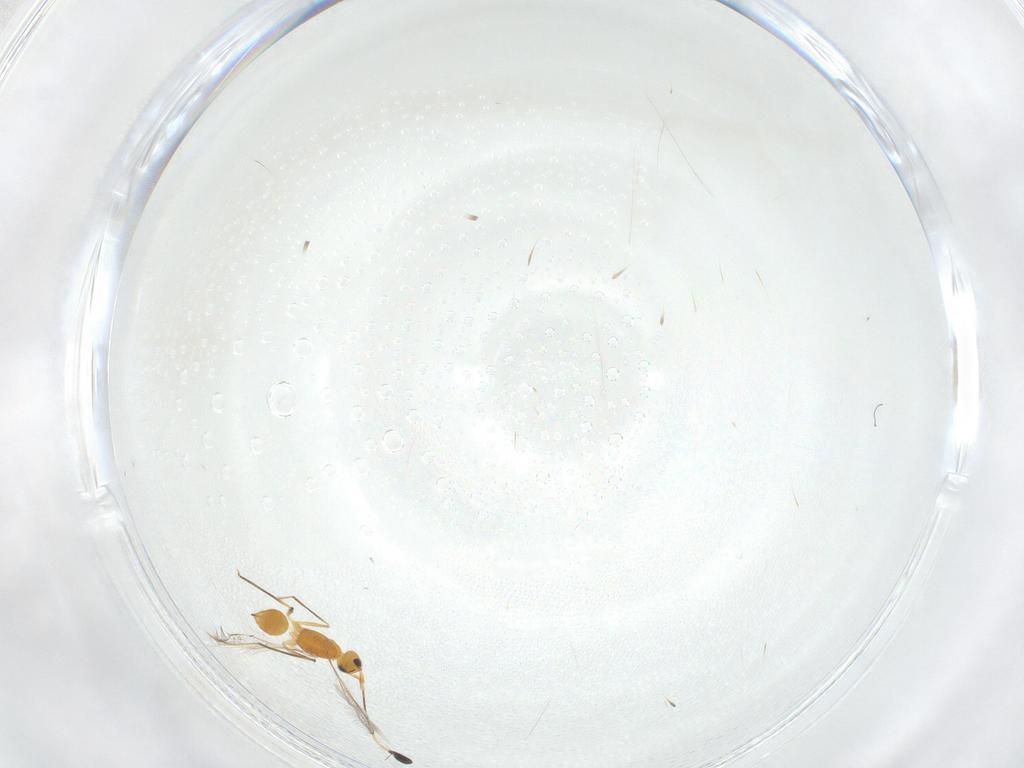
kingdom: Animalia
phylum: Arthropoda
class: Insecta
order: Hymenoptera
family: Mymaridae
